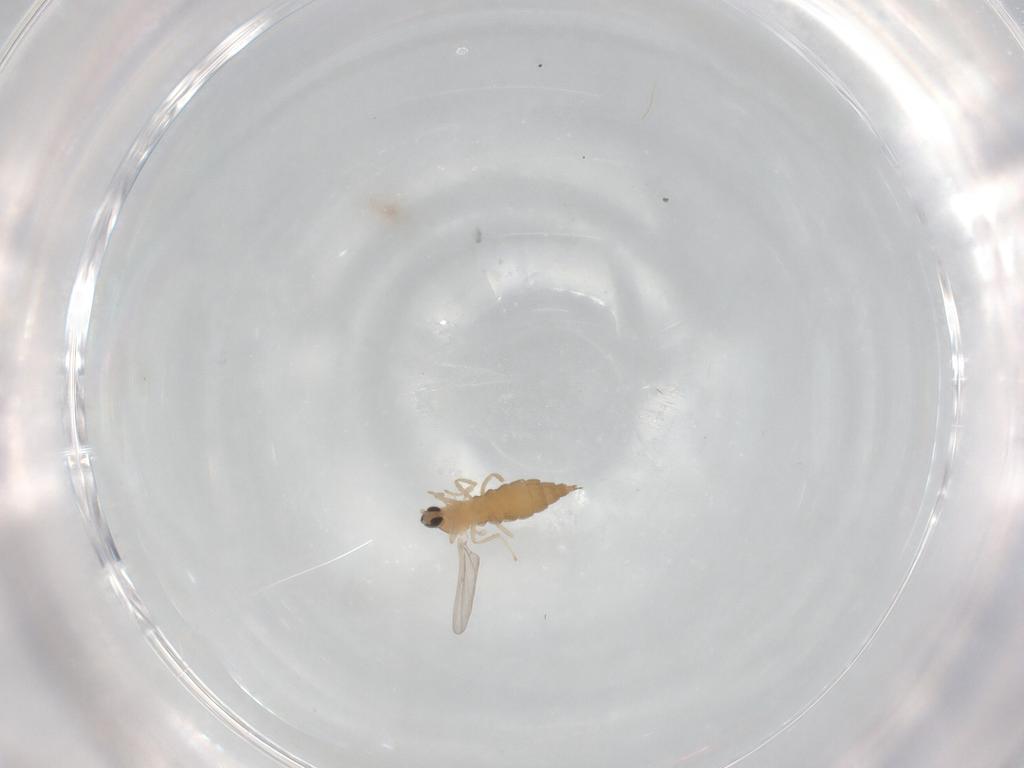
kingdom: Animalia
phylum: Arthropoda
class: Insecta
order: Diptera
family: Cecidomyiidae
